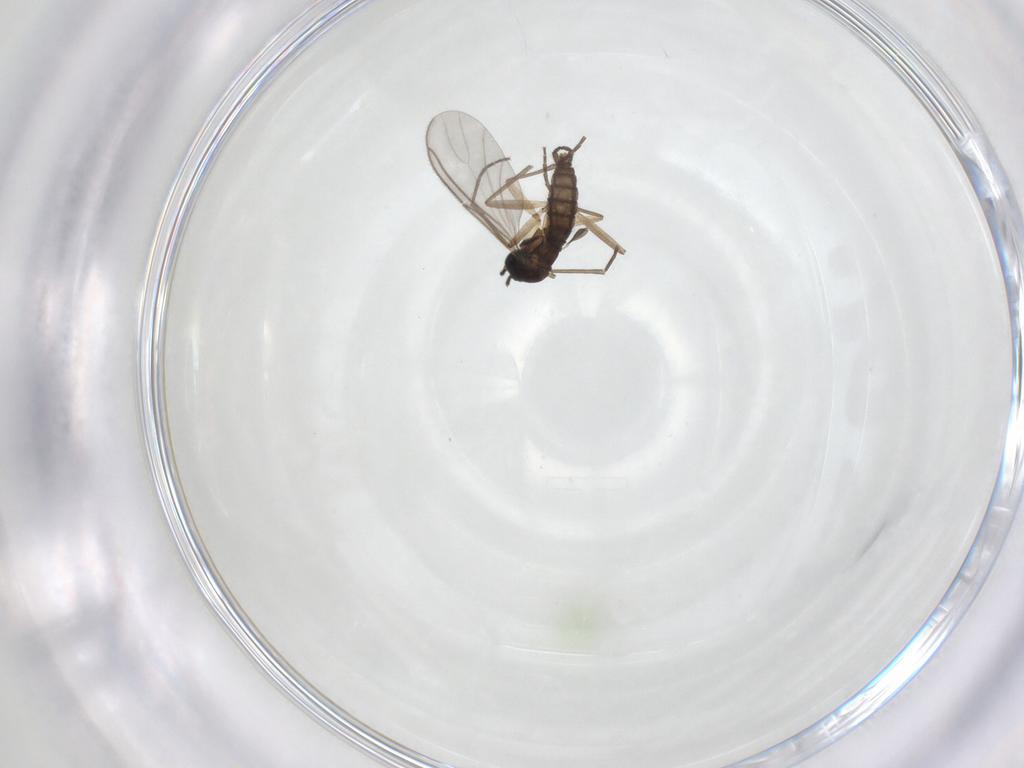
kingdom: Animalia
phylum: Arthropoda
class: Insecta
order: Diptera
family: Sciaridae
